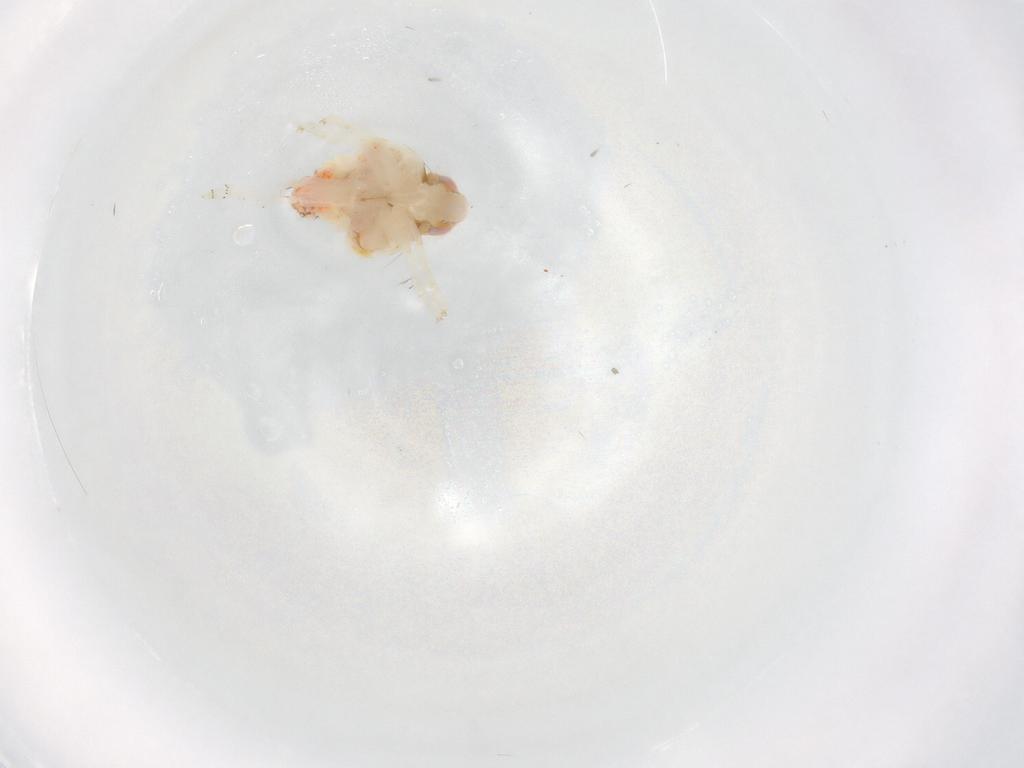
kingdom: Animalia
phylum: Arthropoda
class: Insecta
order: Hemiptera
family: Nogodinidae
